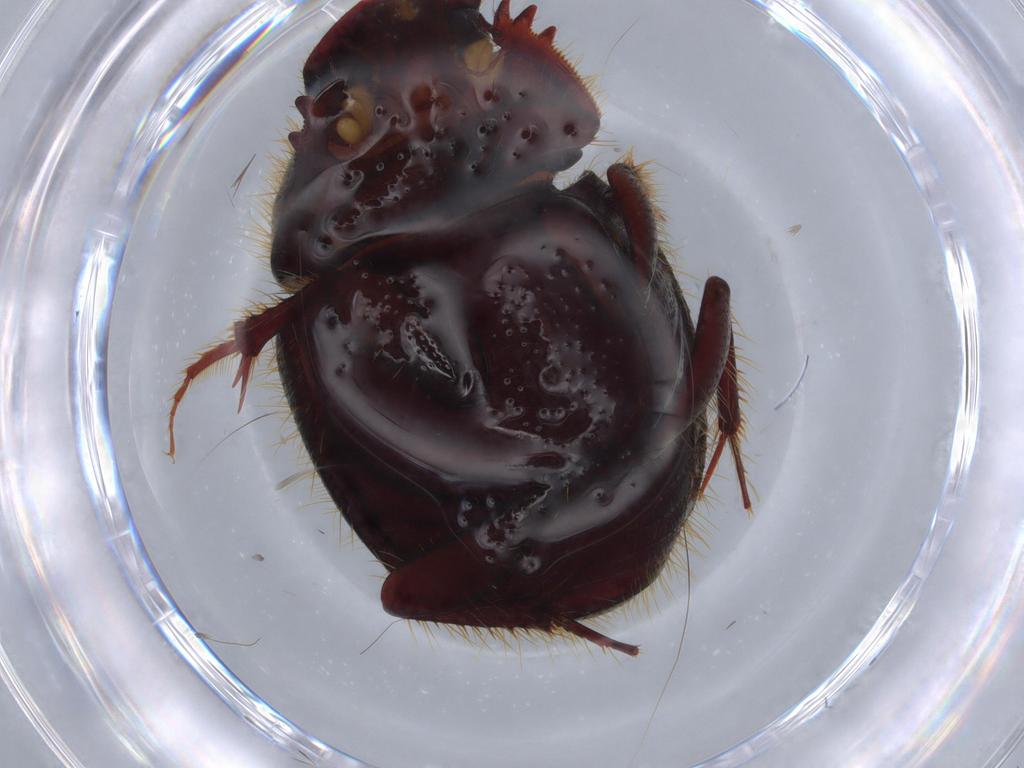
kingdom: Animalia
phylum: Arthropoda
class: Insecta
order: Coleoptera
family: Scarabaeidae
